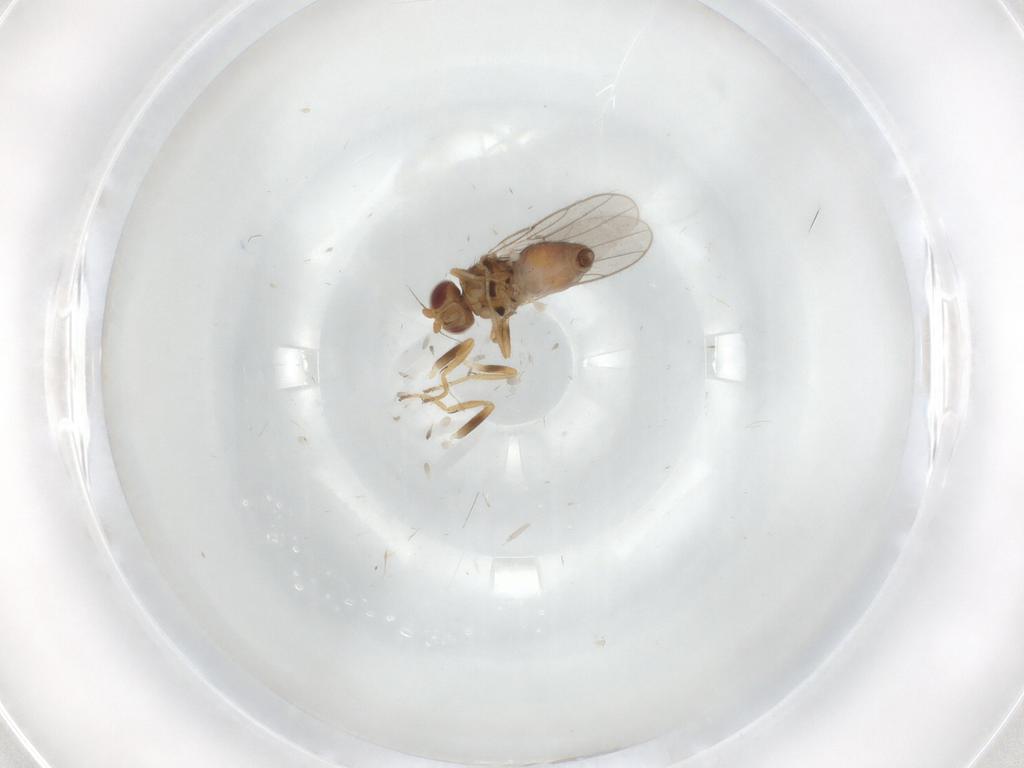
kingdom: Animalia
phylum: Arthropoda
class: Insecta
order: Diptera
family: Chloropidae
